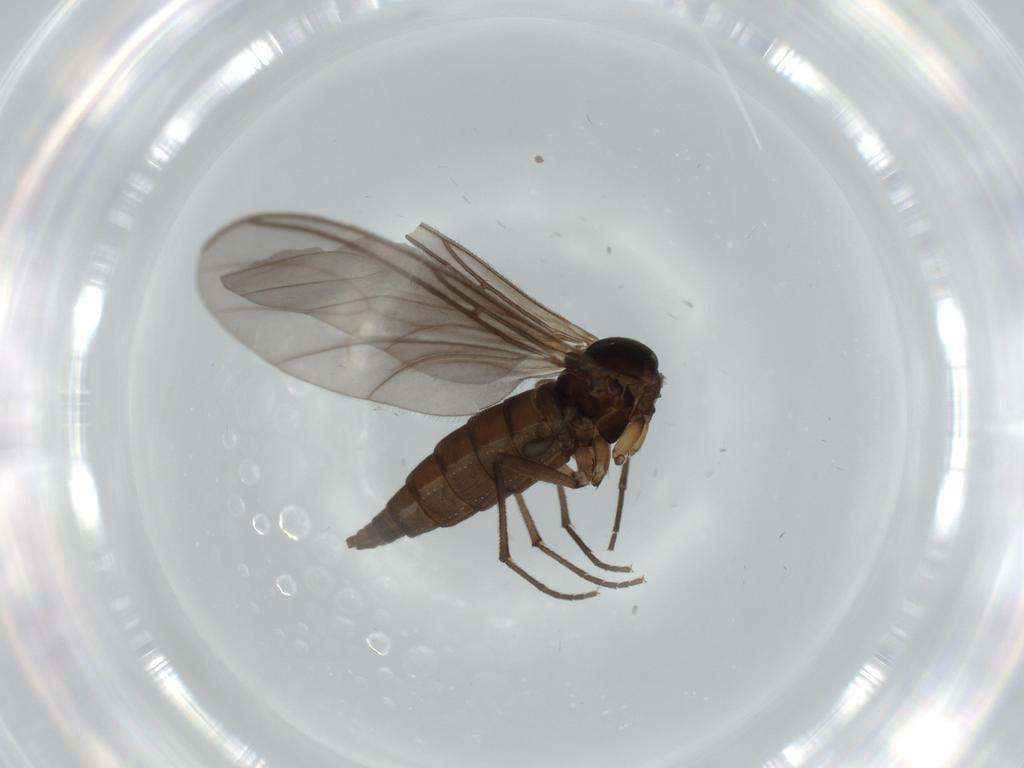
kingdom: Animalia
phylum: Arthropoda
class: Insecta
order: Diptera
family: Sciaridae
